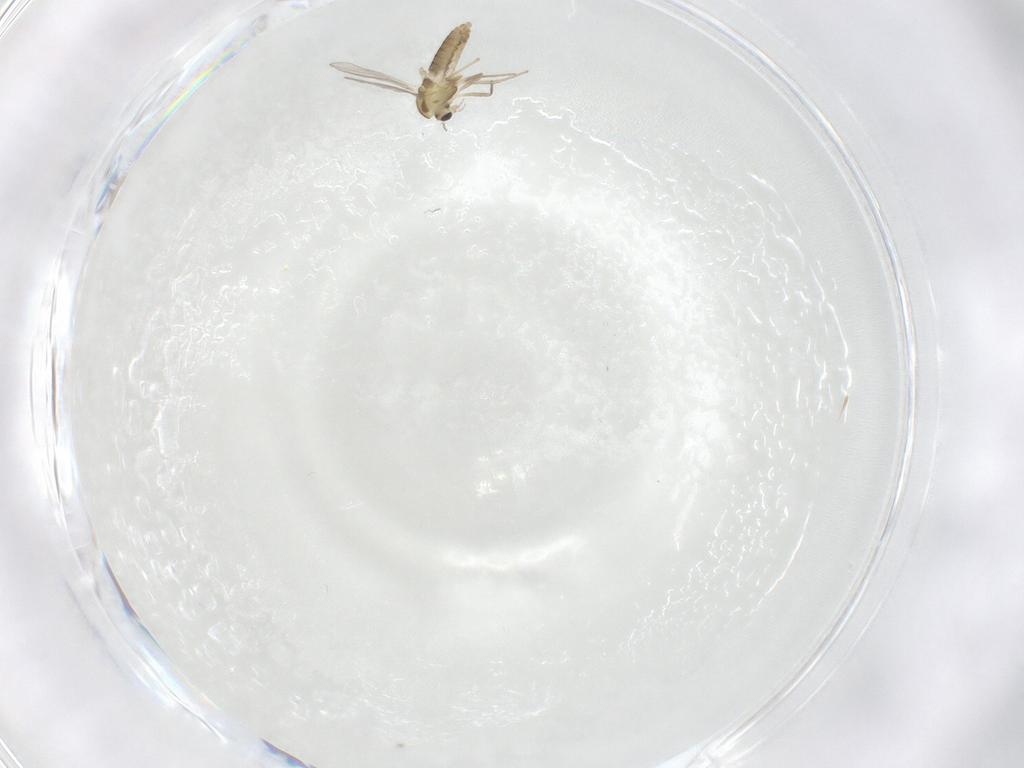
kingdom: Animalia
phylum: Arthropoda
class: Insecta
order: Diptera
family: Chironomidae
